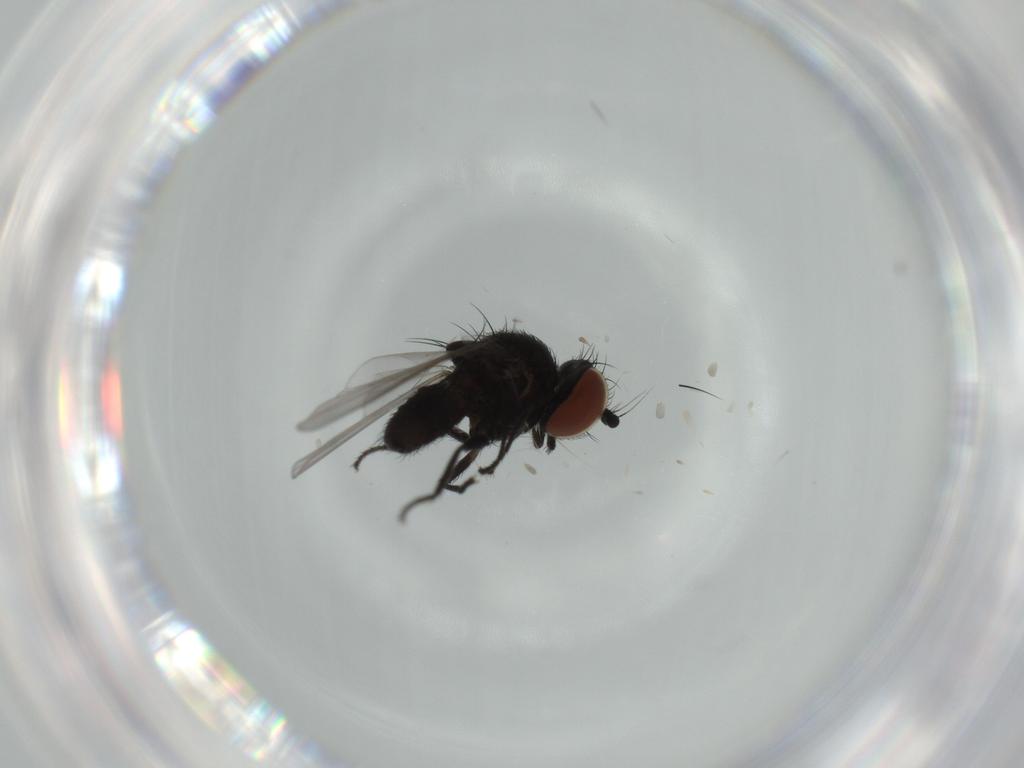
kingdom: Animalia
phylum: Arthropoda
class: Insecta
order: Diptera
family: Milichiidae
